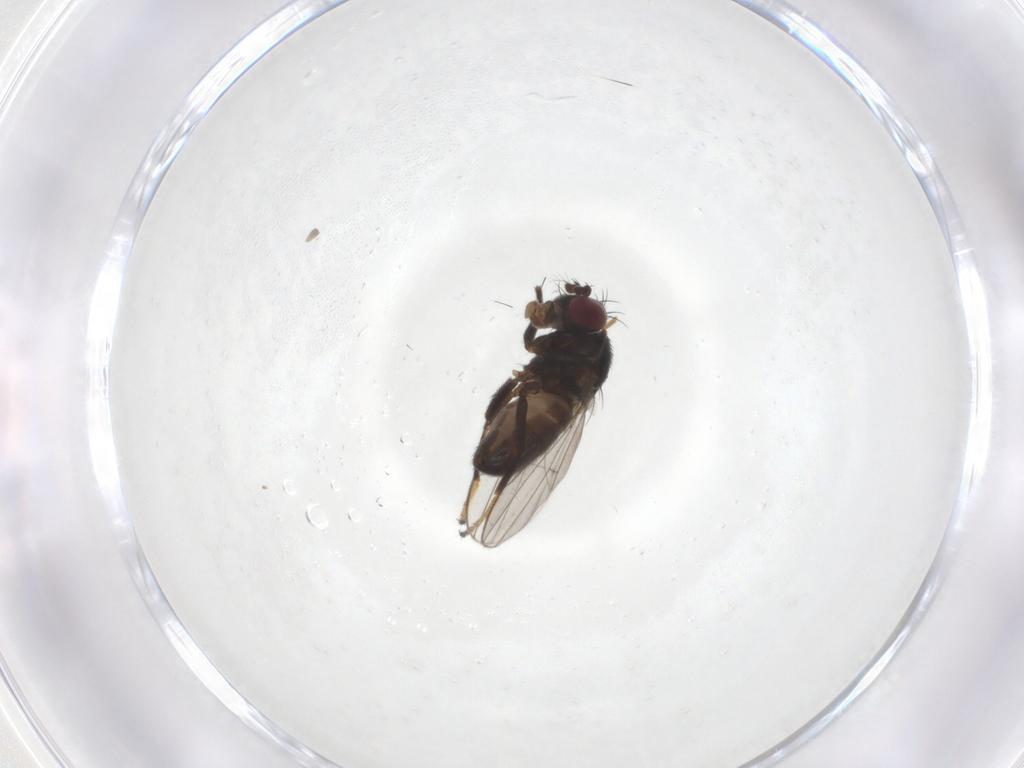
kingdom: Animalia
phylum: Arthropoda
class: Insecta
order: Diptera
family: Ephydridae
